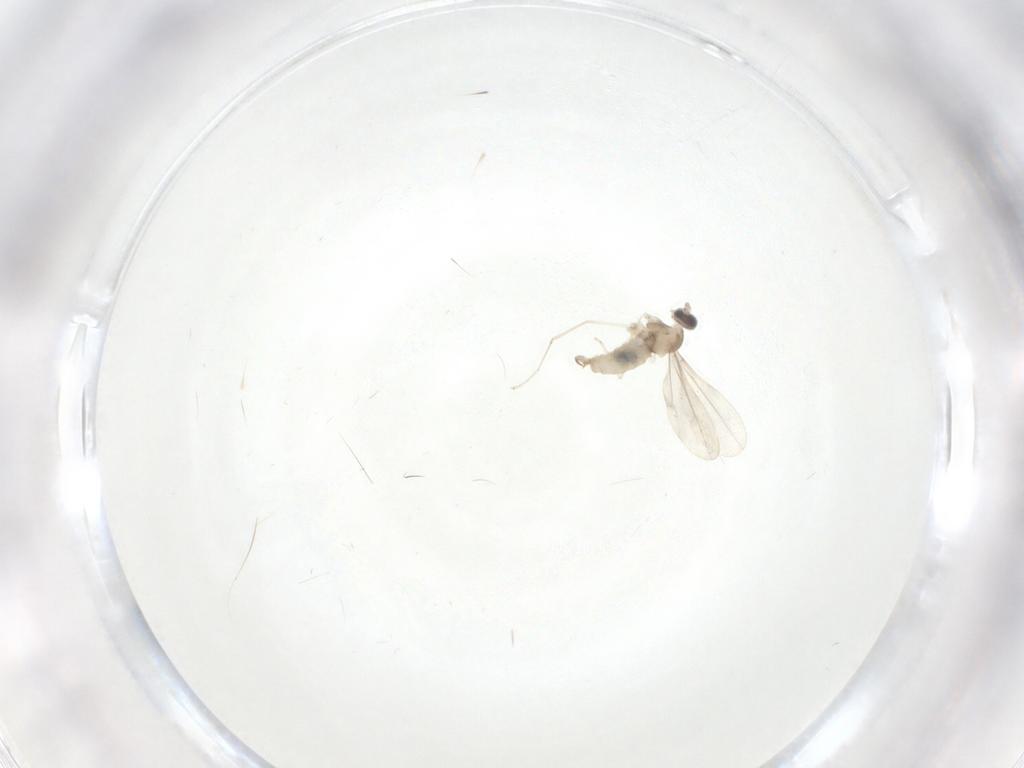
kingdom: Animalia
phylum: Arthropoda
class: Insecta
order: Diptera
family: Cecidomyiidae
